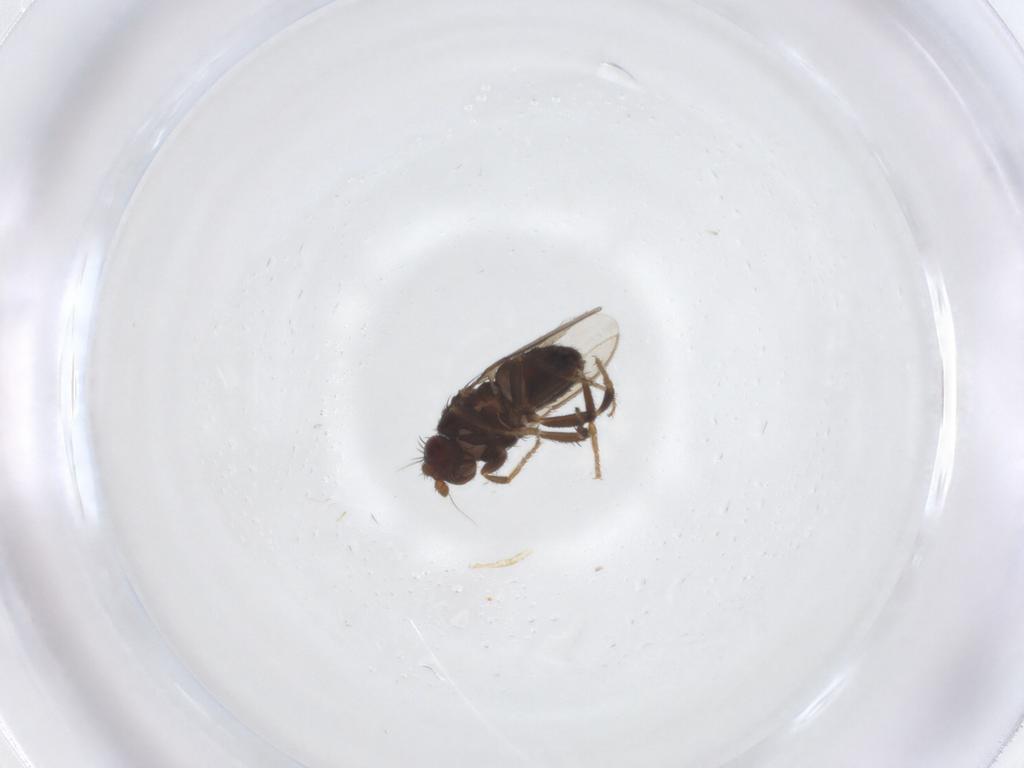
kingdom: Animalia
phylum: Arthropoda
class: Insecta
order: Diptera
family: Sphaeroceridae
